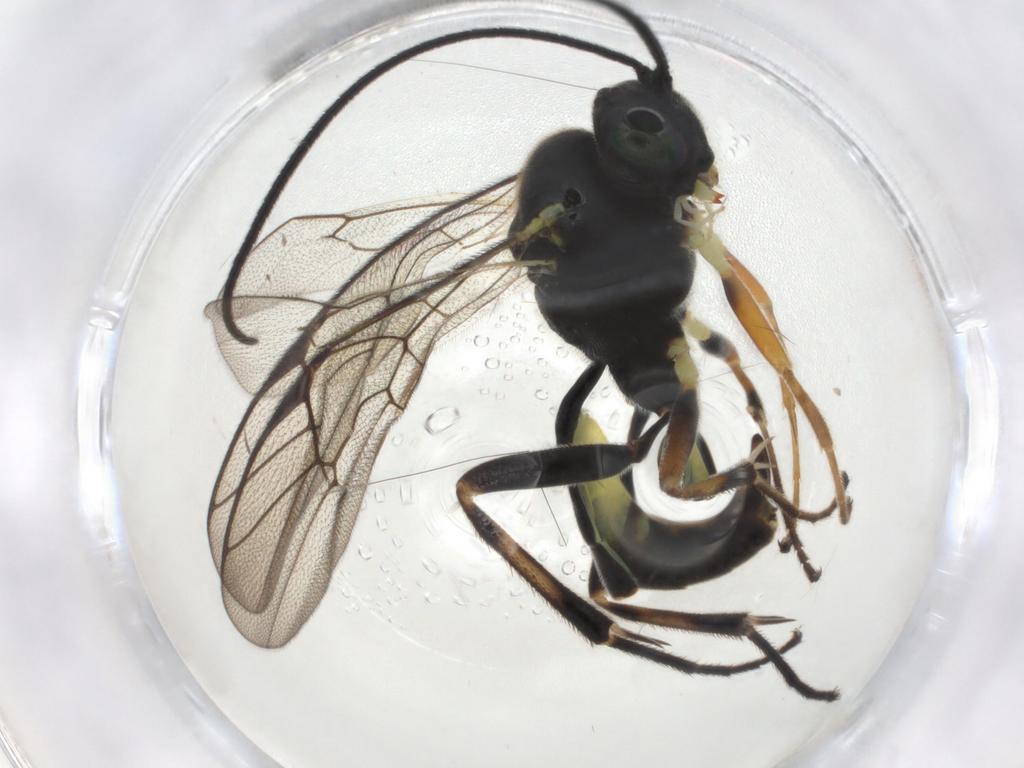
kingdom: Animalia
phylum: Arthropoda
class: Insecta
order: Hymenoptera
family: Ichneumonidae
